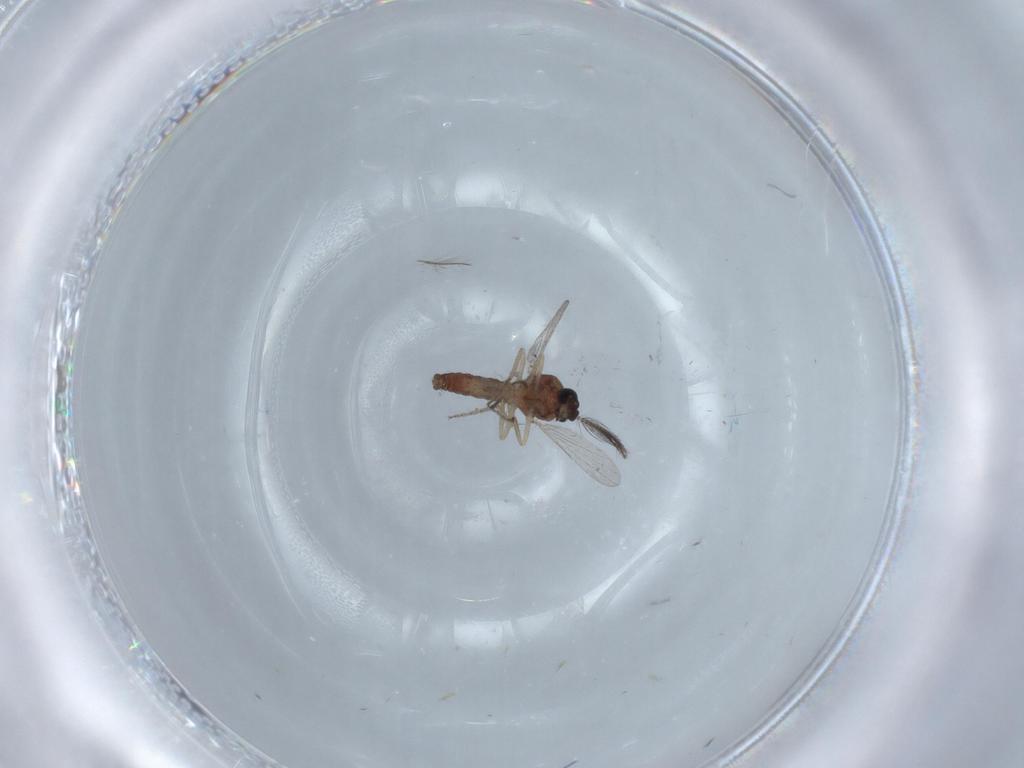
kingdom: Animalia
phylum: Arthropoda
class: Insecta
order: Diptera
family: Ceratopogonidae
